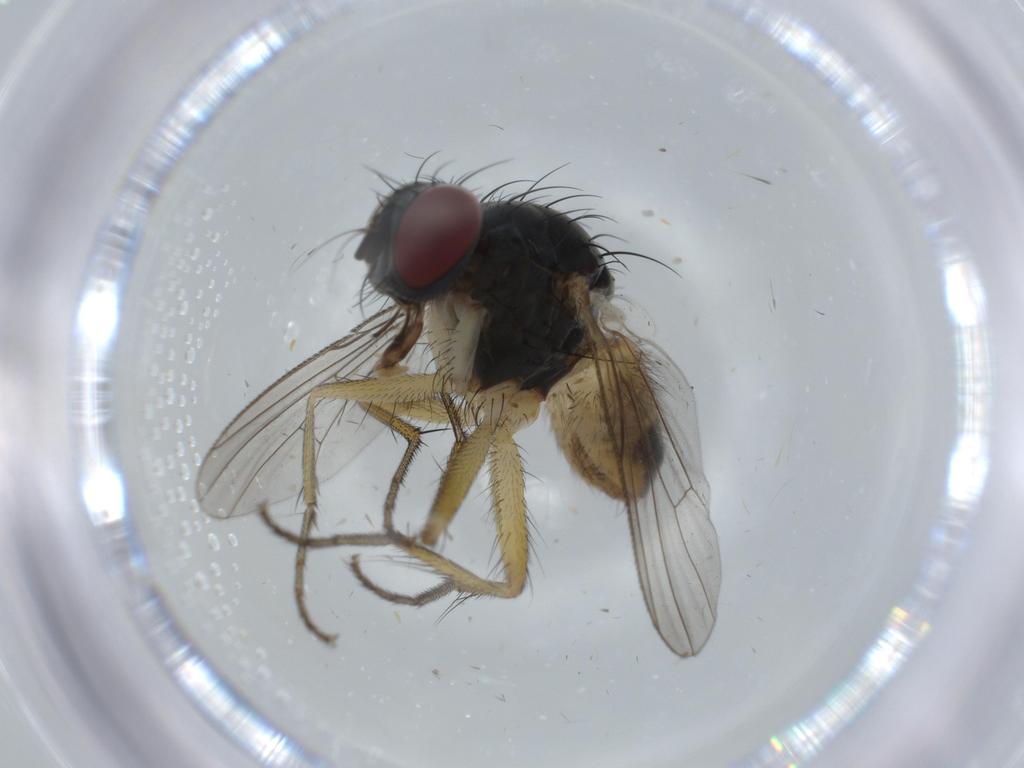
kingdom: Animalia
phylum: Arthropoda
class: Insecta
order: Diptera
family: Muscidae
